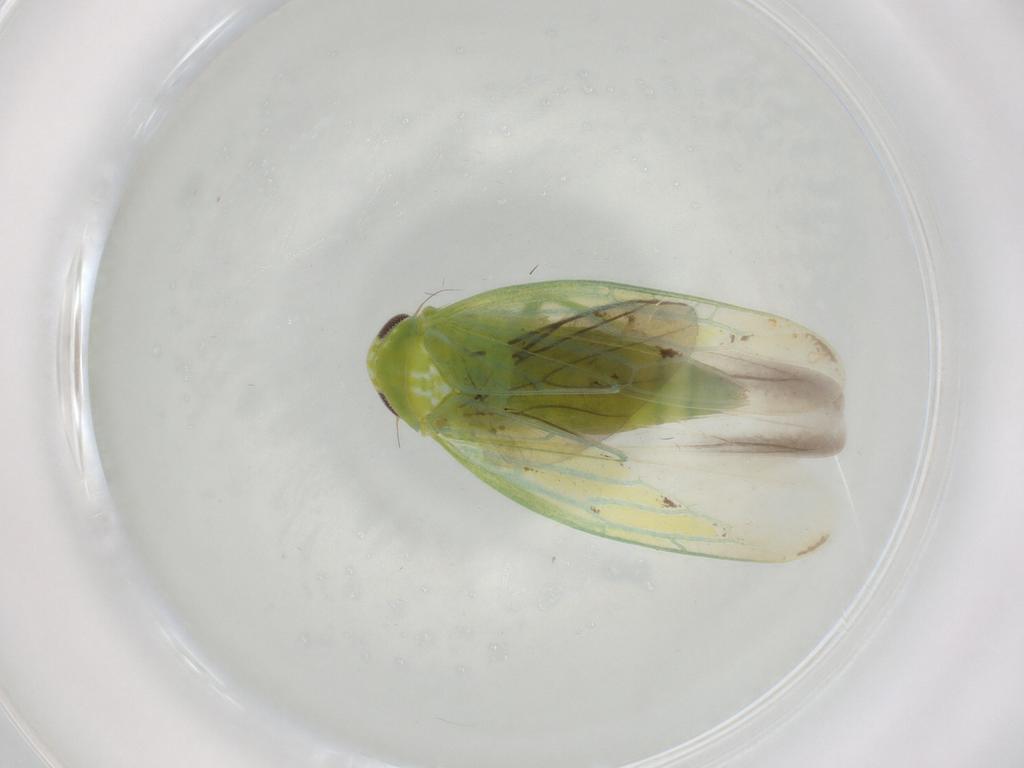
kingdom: Animalia
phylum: Arthropoda
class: Insecta
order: Hemiptera
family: Cicadellidae
